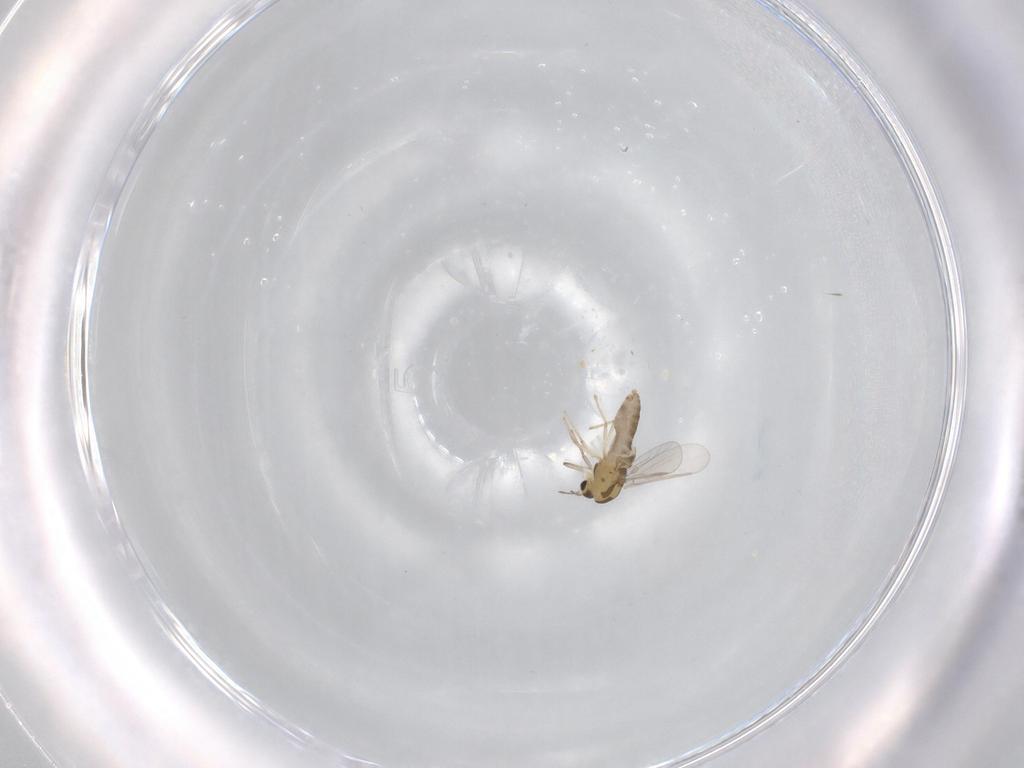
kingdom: Animalia
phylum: Arthropoda
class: Insecta
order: Diptera
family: Chironomidae
